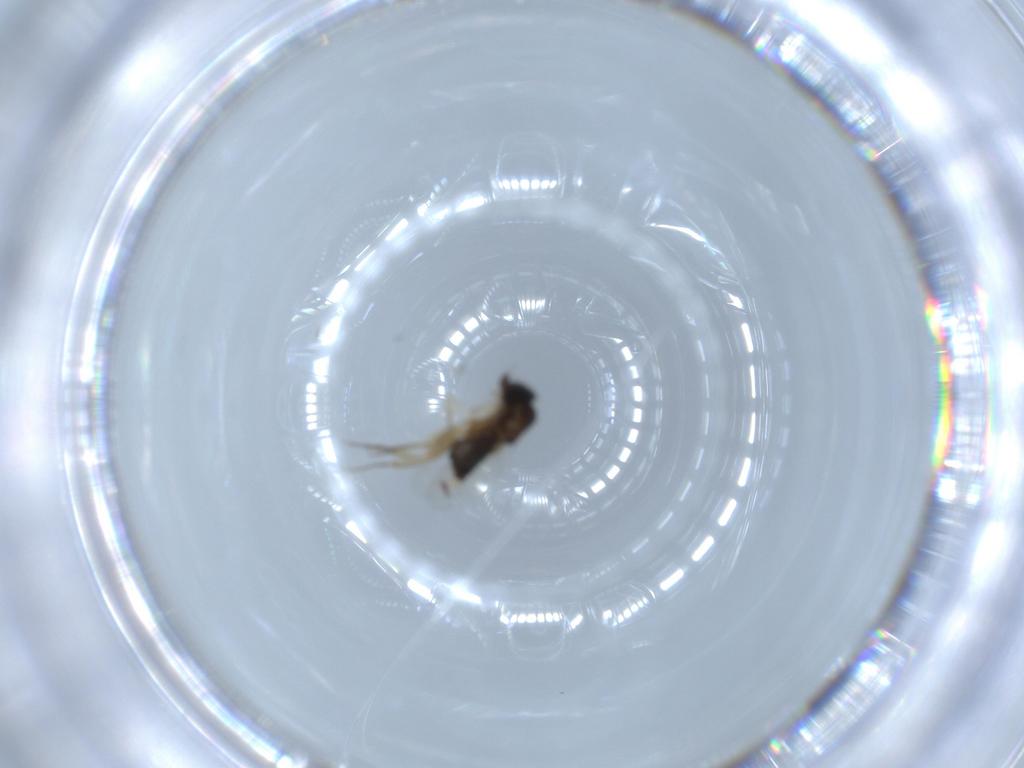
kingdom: Animalia
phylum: Arthropoda
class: Insecta
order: Diptera
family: Phoridae
